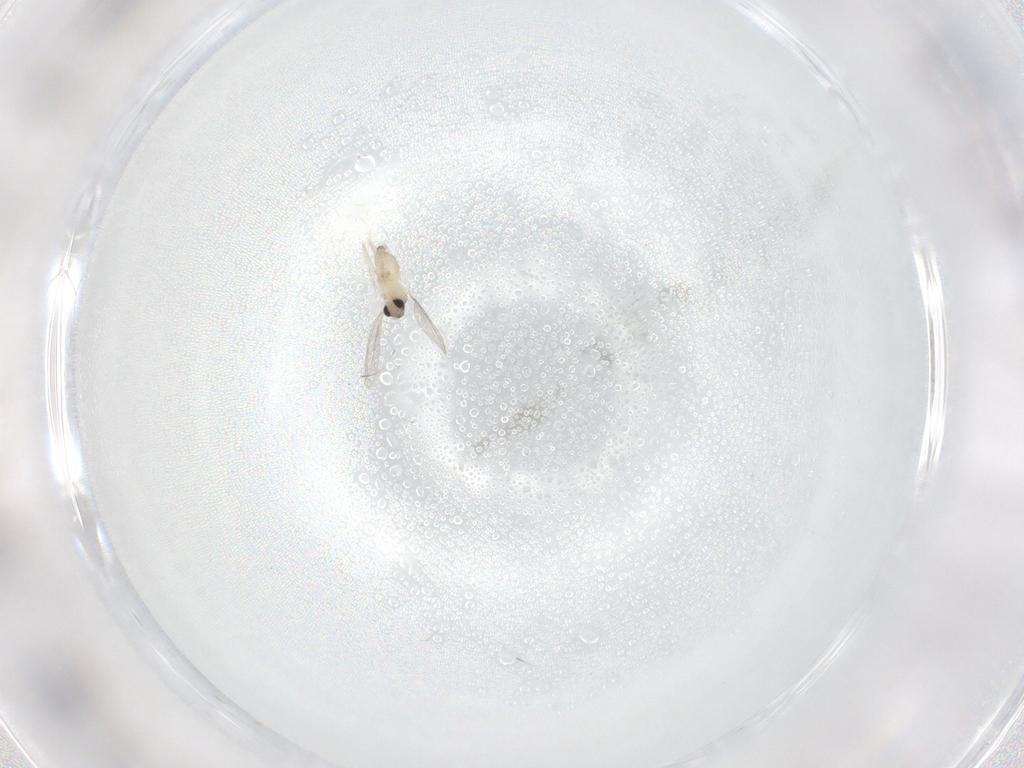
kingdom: Animalia
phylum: Arthropoda
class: Insecta
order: Diptera
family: Cecidomyiidae
